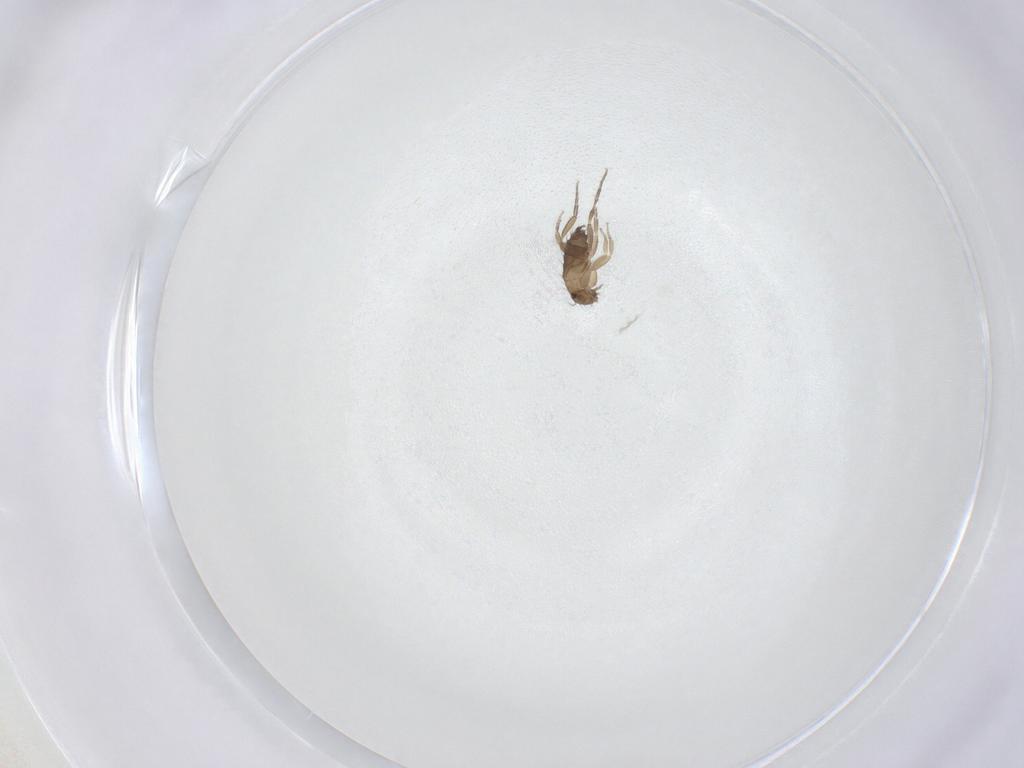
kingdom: Animalia
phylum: Arthropoda
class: Insecta
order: Diptera
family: Phoridae
